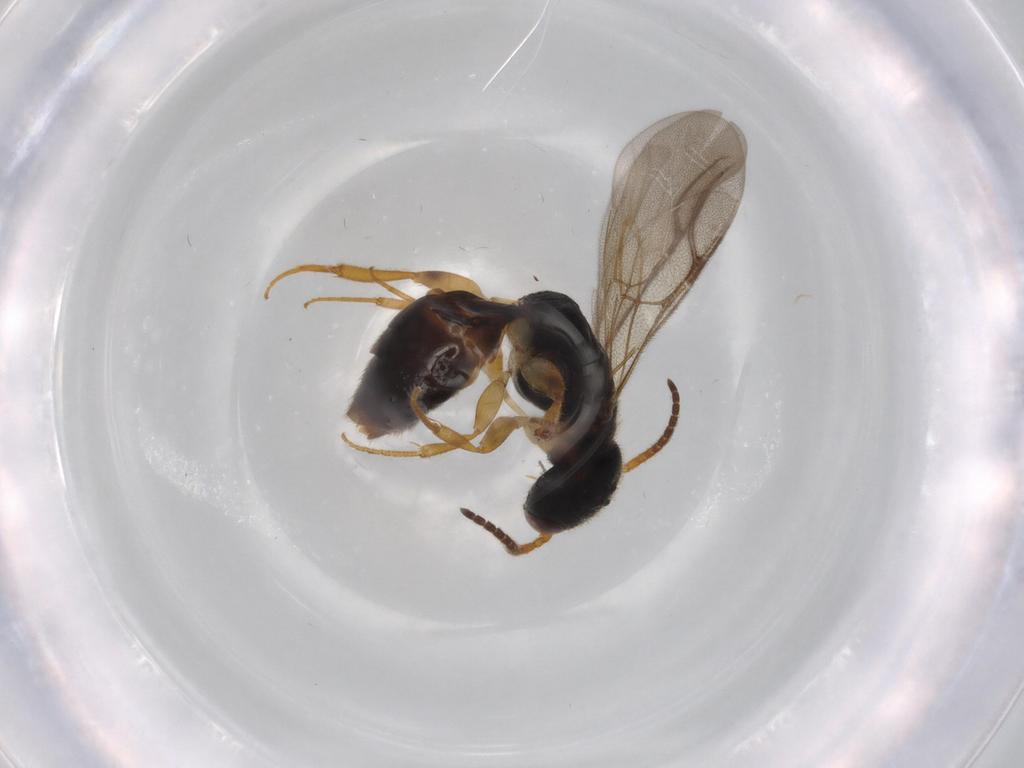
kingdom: Animalia
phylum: Arthropoda
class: Insecta
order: Hymenoptera
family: Bethylidae
